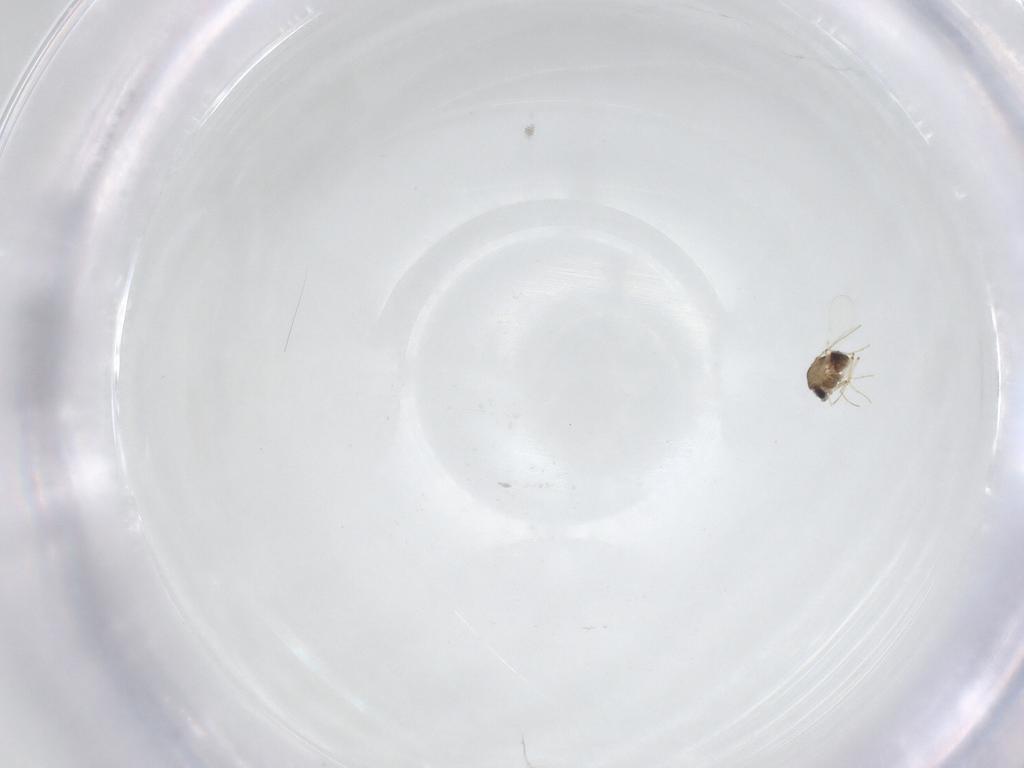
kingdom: Animalia
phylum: Arthropoda
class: Insecta
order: Diptera
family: Chironomidae
